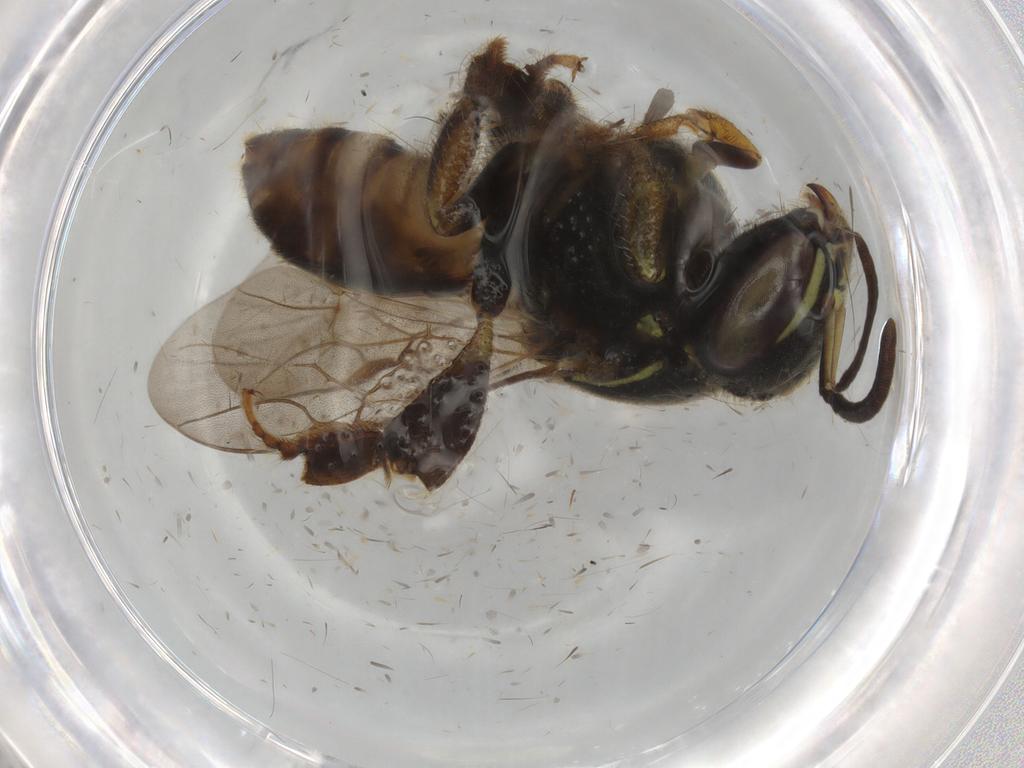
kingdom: Animalia
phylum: Arthropoda
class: Insecta
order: Hymenoptera
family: Apidae
